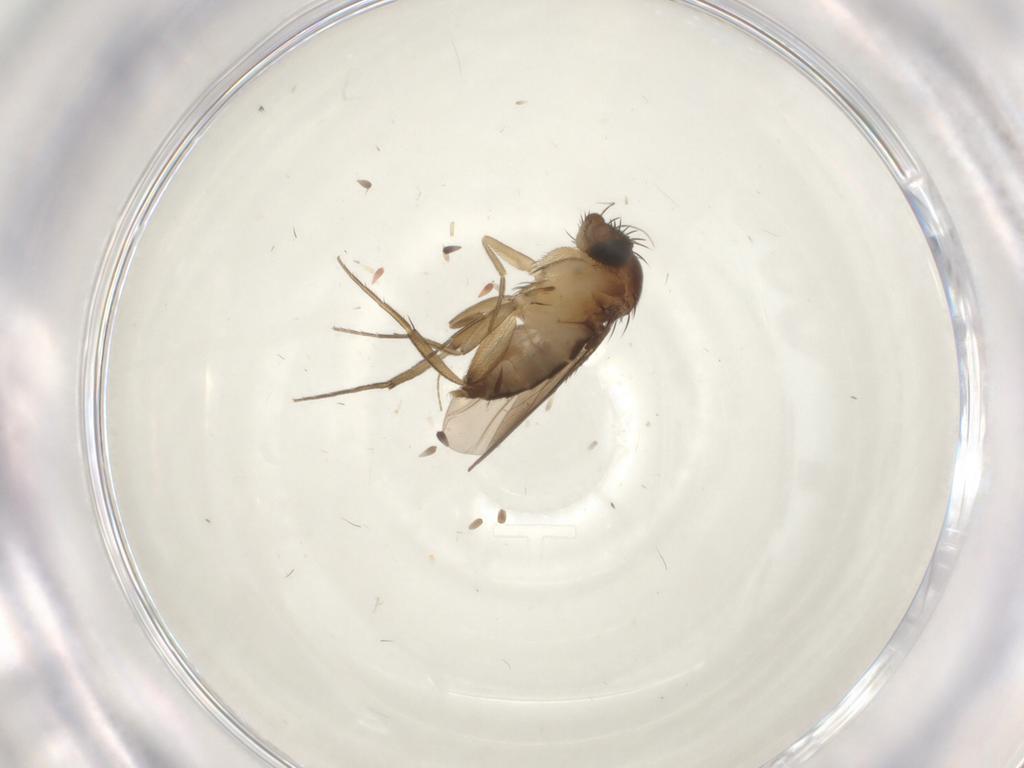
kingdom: Animalia
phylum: Arthropoda
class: Insecta
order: Diptera
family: Phoridae
